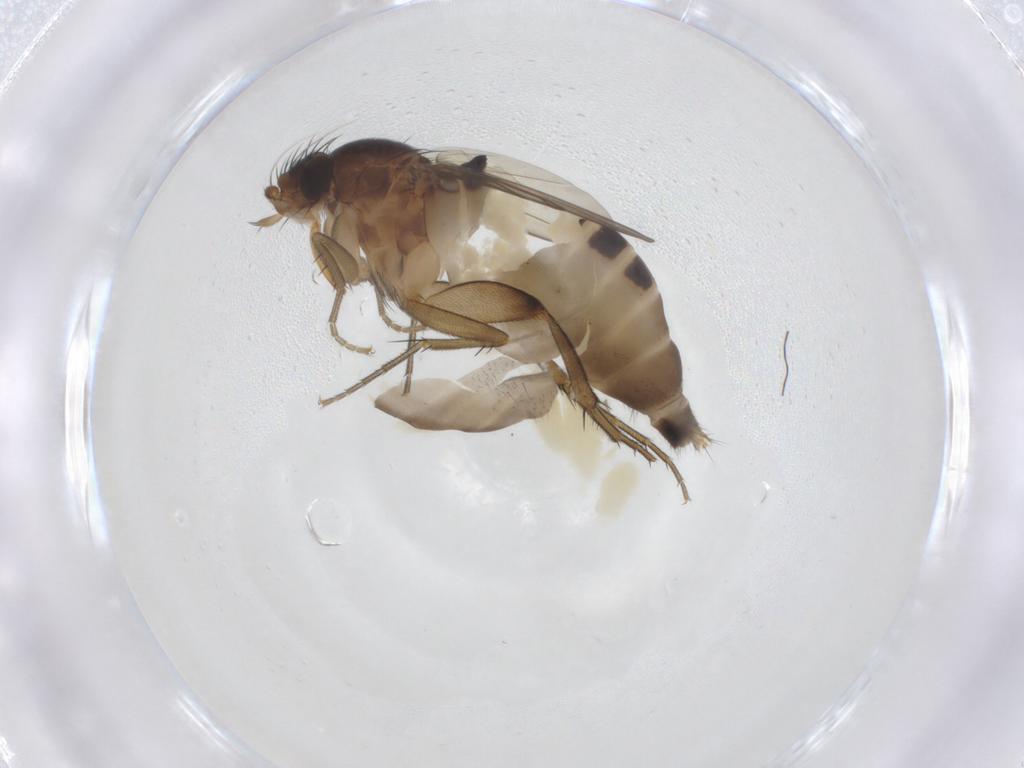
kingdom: Animalia
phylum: Arthropoda
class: Insecta
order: Diptera
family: Phoridae
